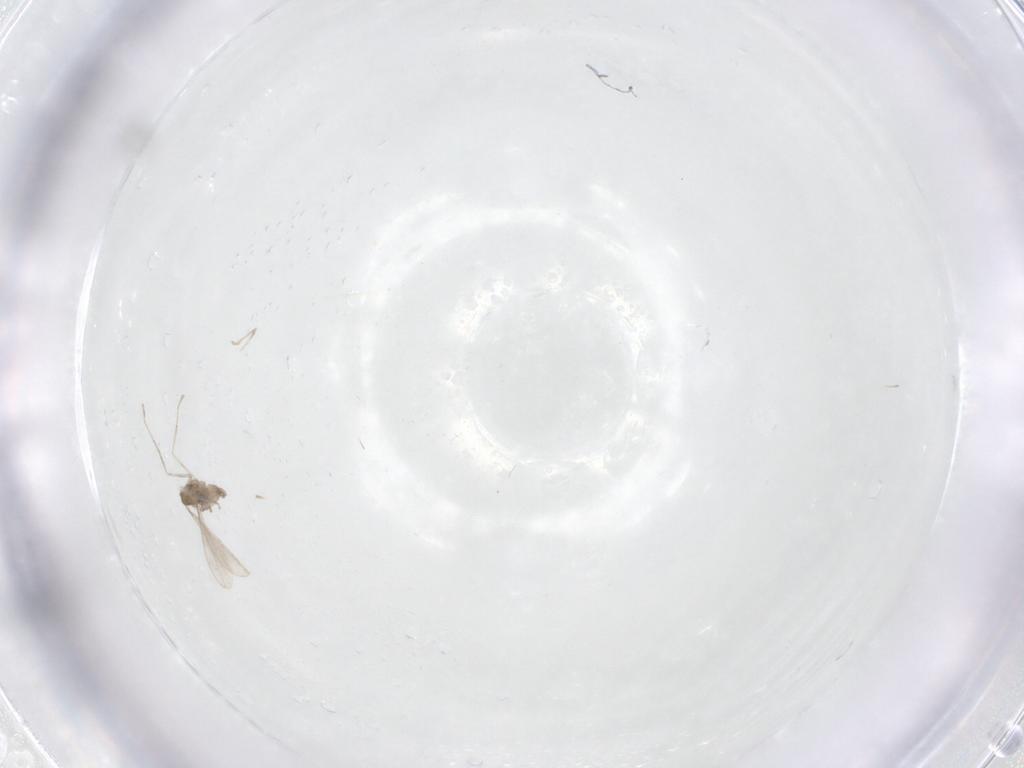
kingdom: Animalia
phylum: Arthropoda
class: Insecta
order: Diptera
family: Cecidomyiidae
